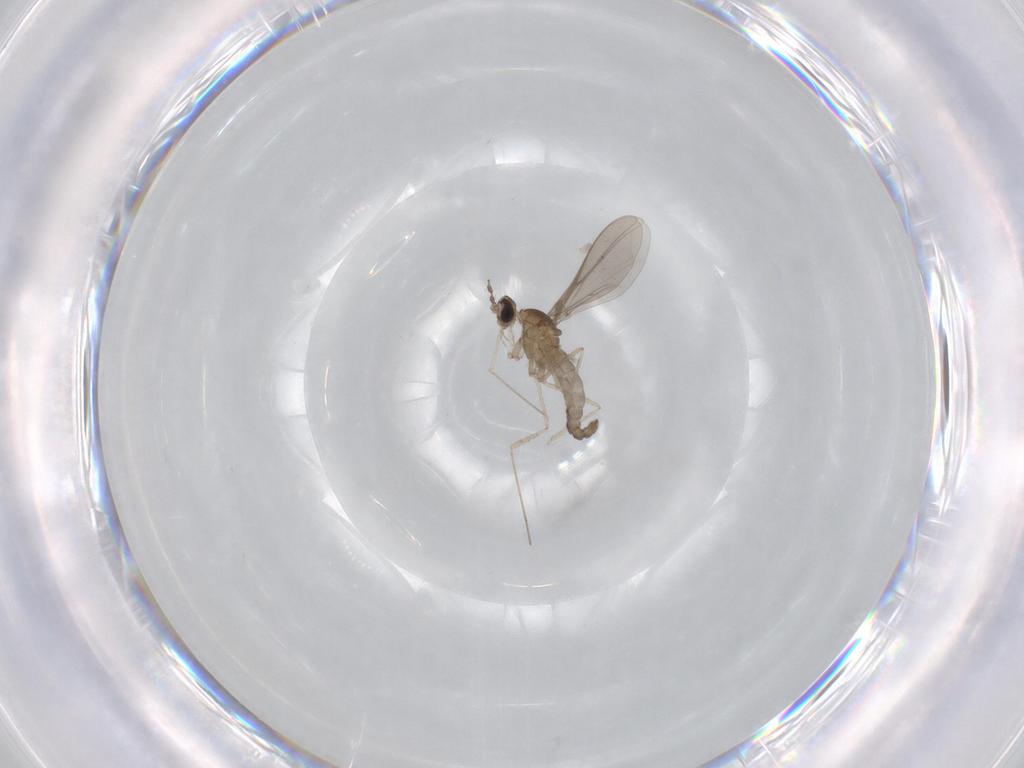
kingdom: Animalia
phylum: Arthropoda
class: Insecta
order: Diptera
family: Cecidomyiidae
